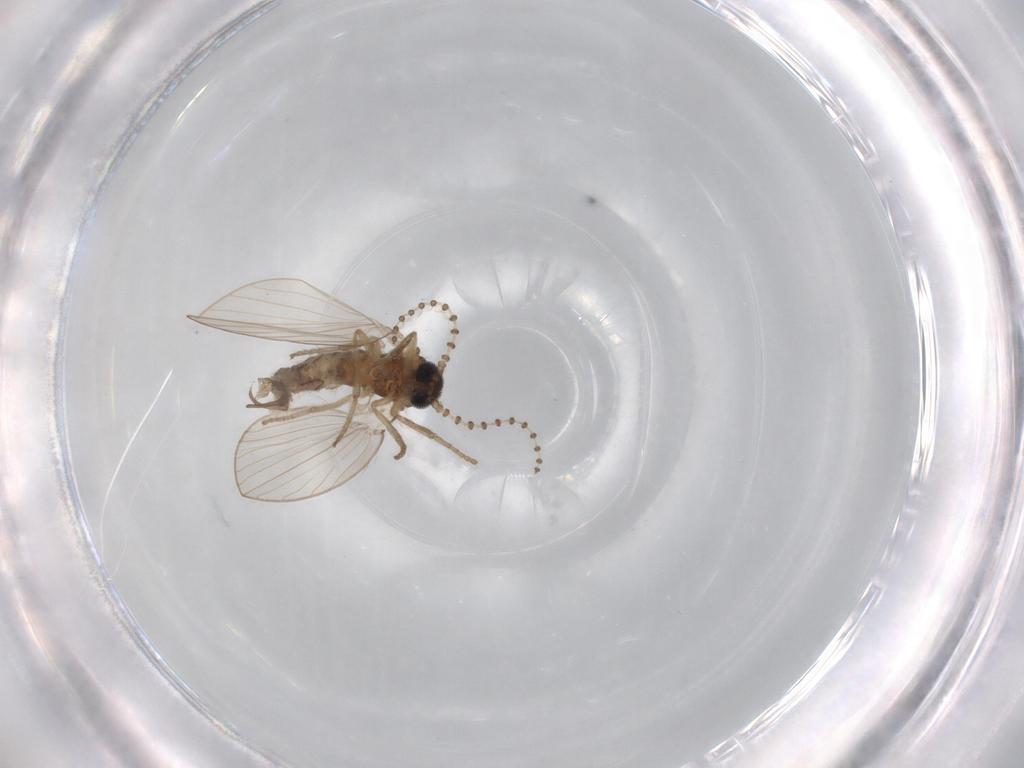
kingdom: Animalia
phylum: Arthropoda
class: Insecta
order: Diptera
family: Psychodidae
